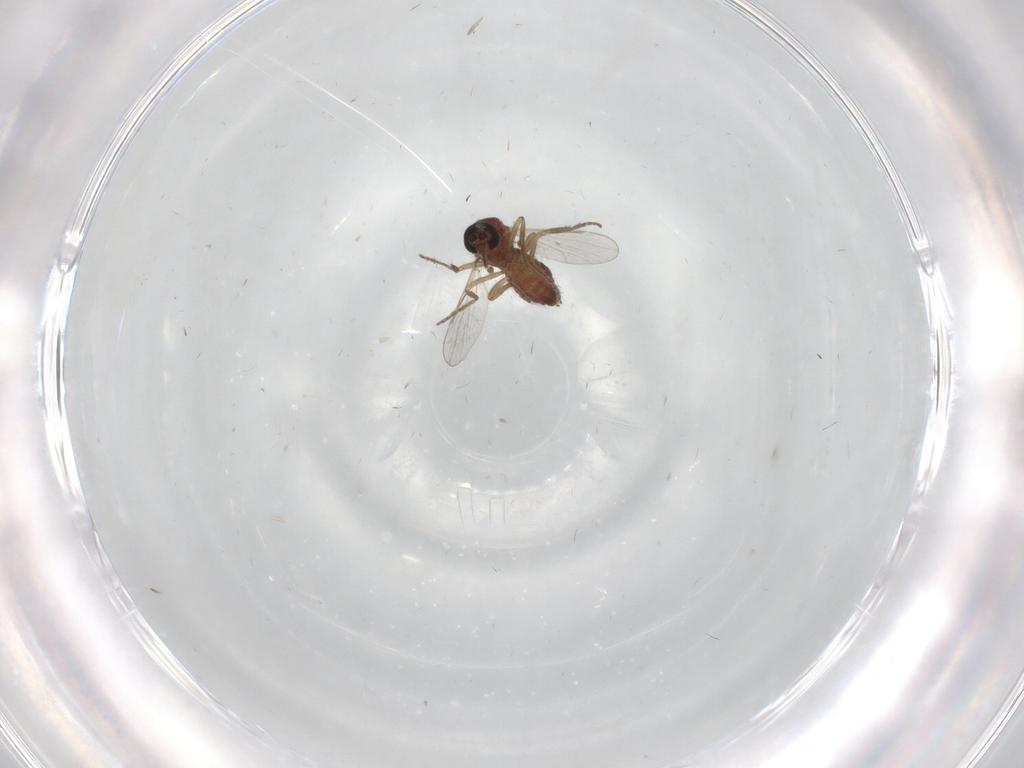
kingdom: Animalia
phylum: Arthropoda
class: Insecta
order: Diptera
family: Ceratopogonidae
